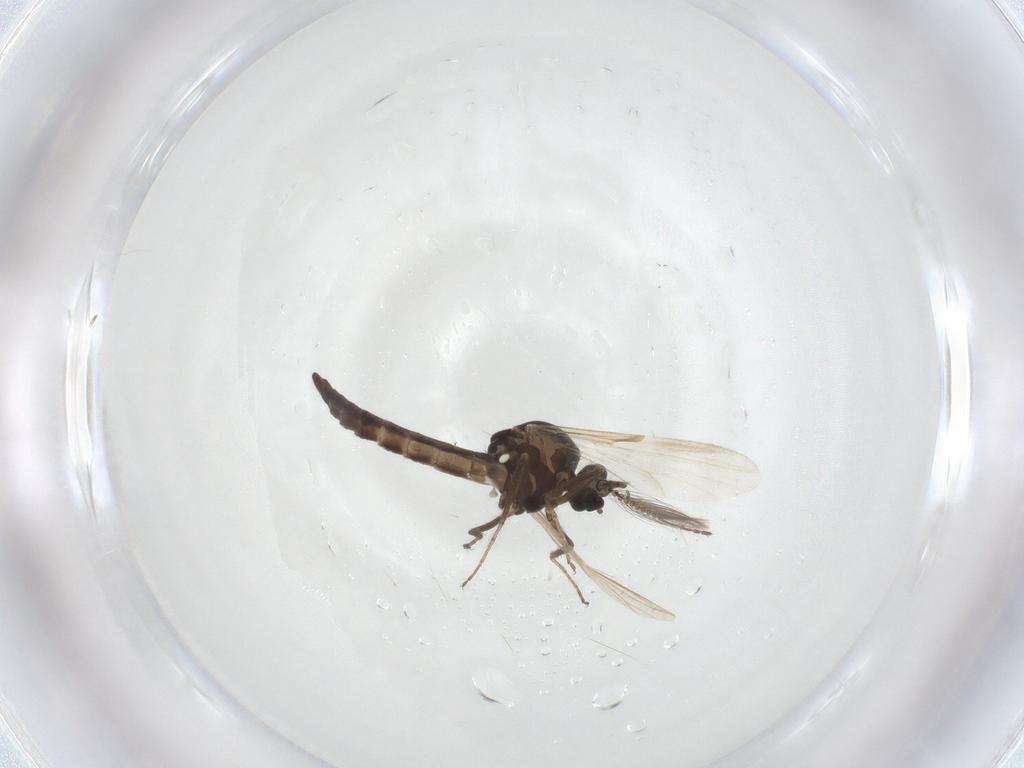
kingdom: Animalia
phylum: Arthropoda
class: Insecta
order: Diptera
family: Ceratopogonidae
